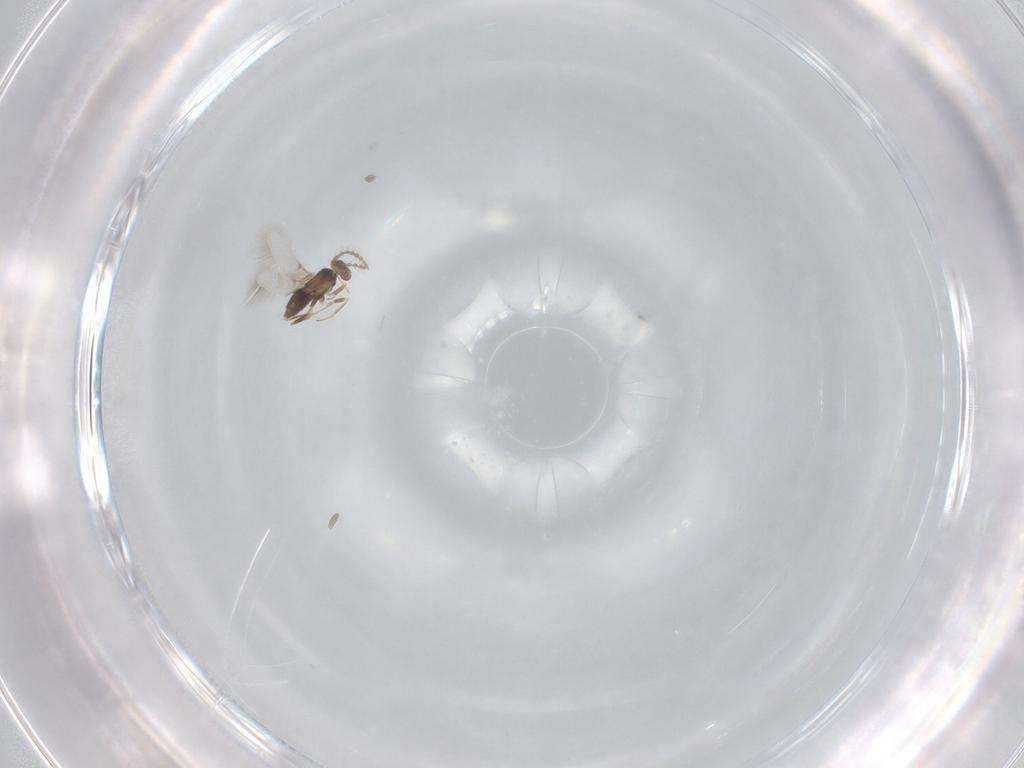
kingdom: Animalia
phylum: Arthropoda
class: Insecta
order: Hymenoptera
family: Encyrtidae
